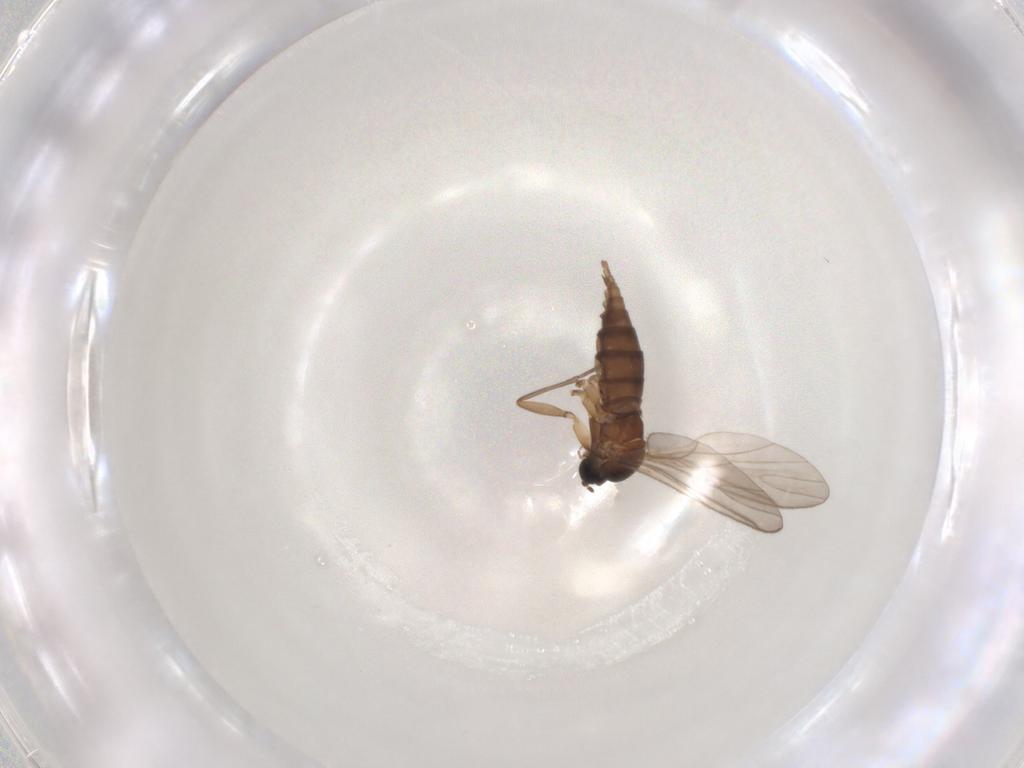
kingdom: Animalia
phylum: Arthropoda
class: Insecta
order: Diptera
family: Sciaridae
